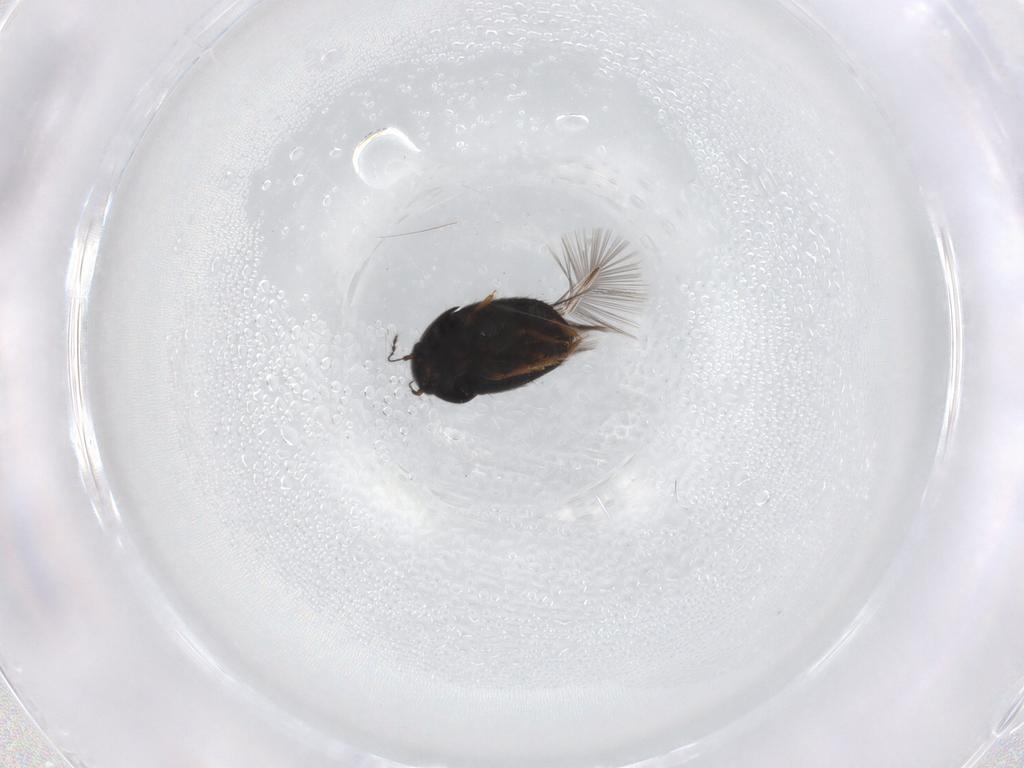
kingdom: Animalia
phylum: Arthropoda
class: Insecta
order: Coleoptera
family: Ptiliidae
